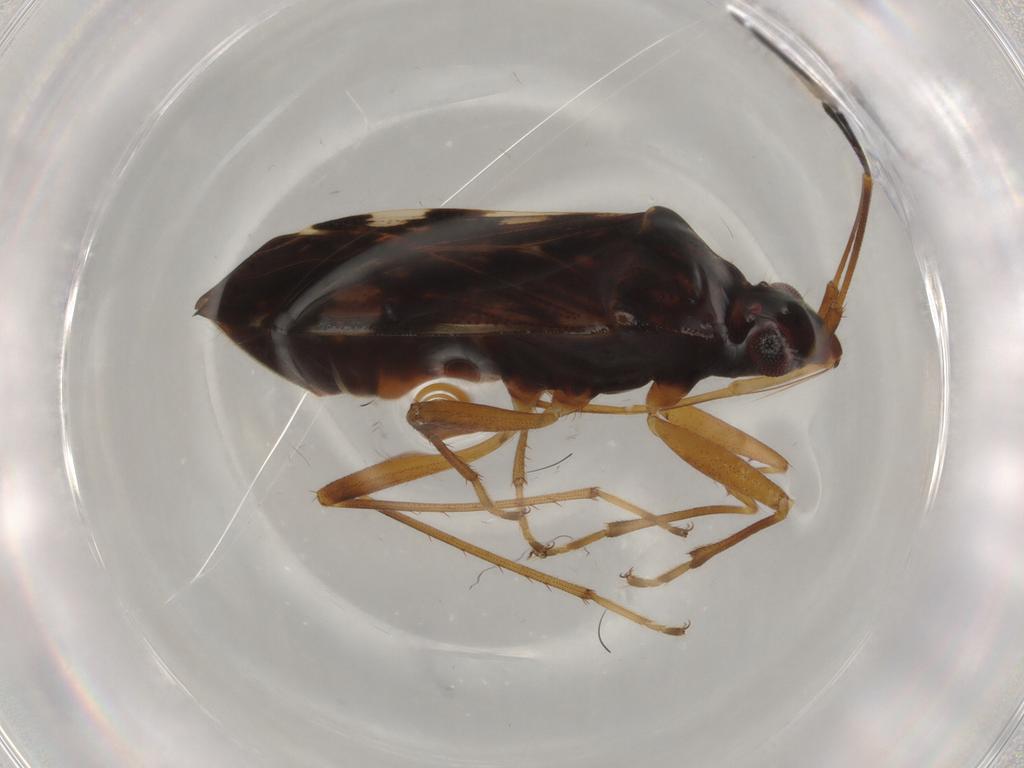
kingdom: Animalia
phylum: Arthropoda
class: Insecta
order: Hemiptera
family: Rhyparochromidae
